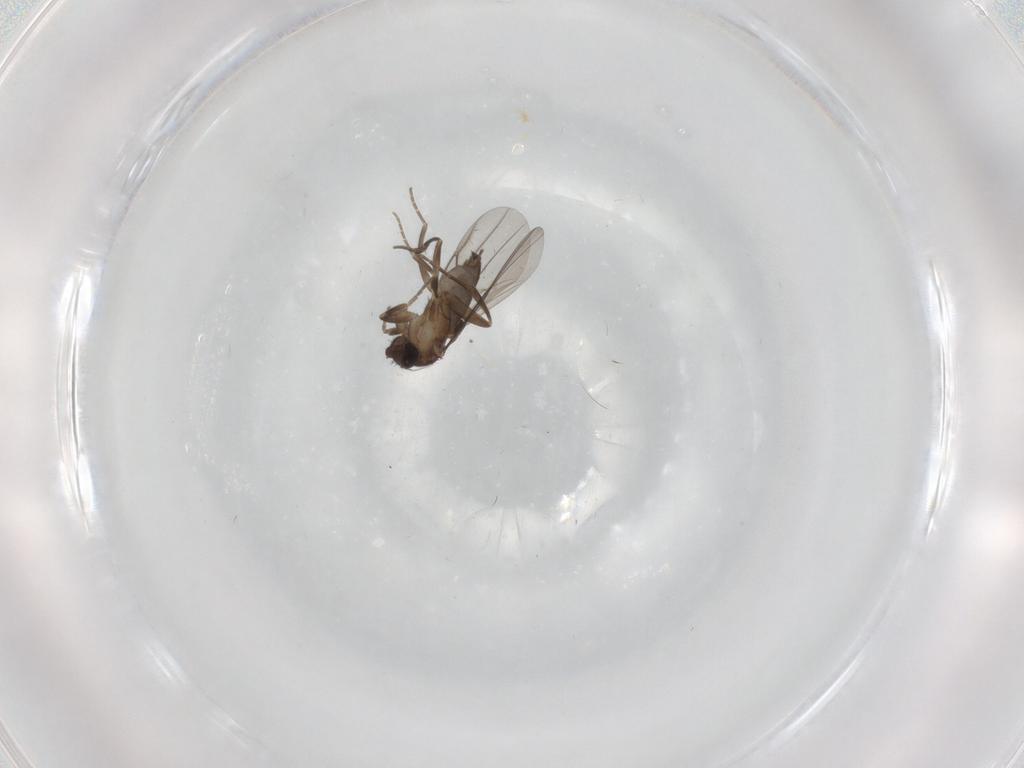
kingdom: Animalia
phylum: Arthropoda
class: Insecta
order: Diptera
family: Phoridae
